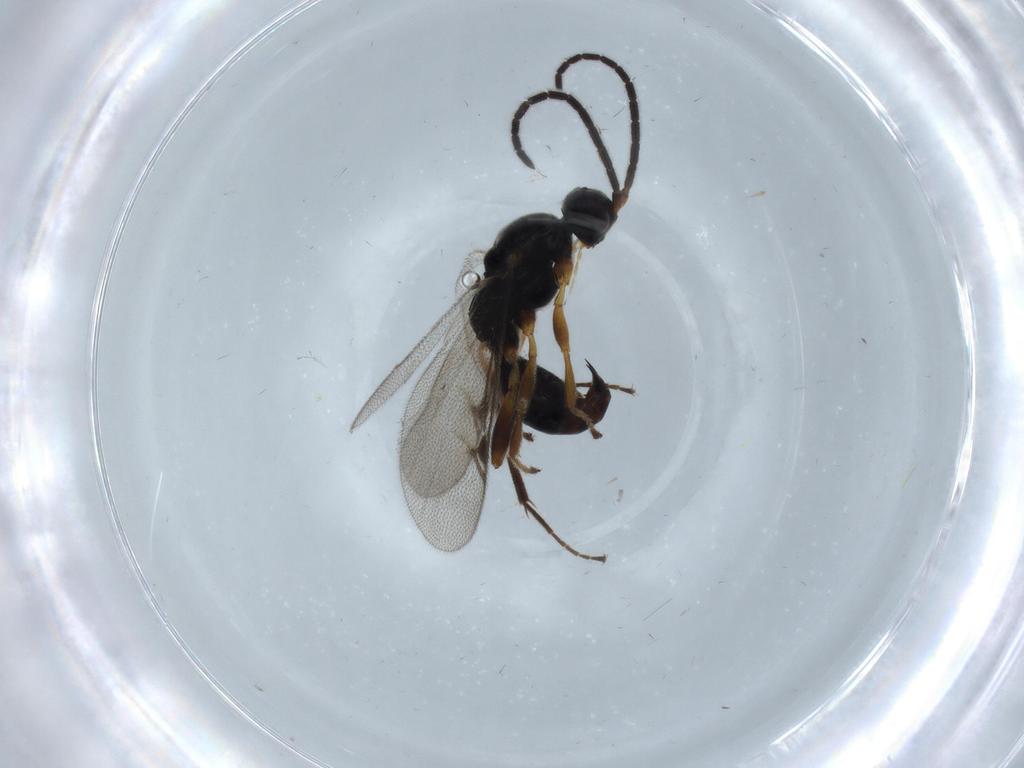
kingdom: Animalia
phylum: Arthropoda
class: Insecta
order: Hymenoptera
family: Proctotrupidae
